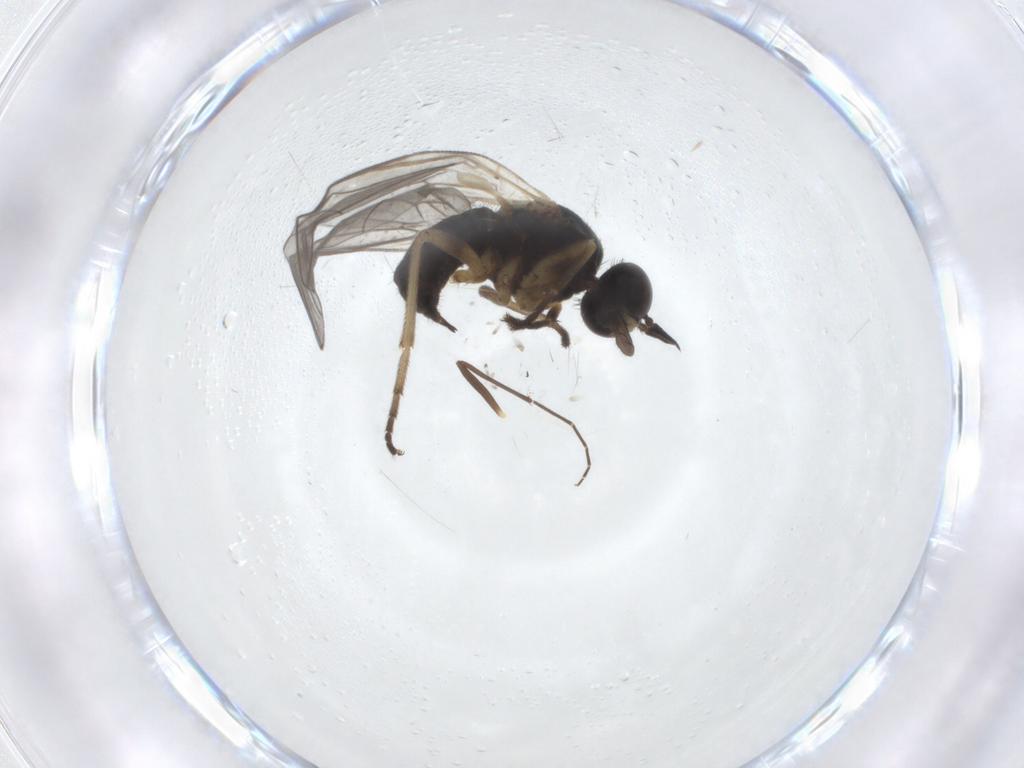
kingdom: Animalia
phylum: Arthropoda
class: Insecta
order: Diptera
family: Empididae
